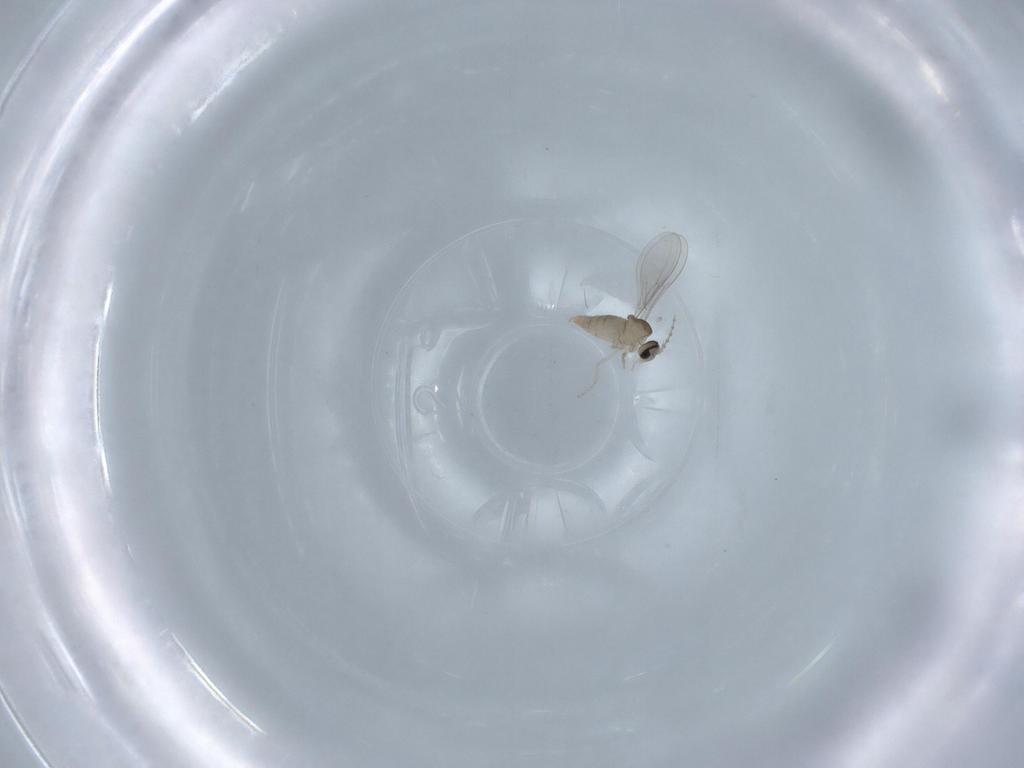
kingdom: Animalia
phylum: Arthropoda
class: Insecta
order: Diptera
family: Cecidomyiidae
